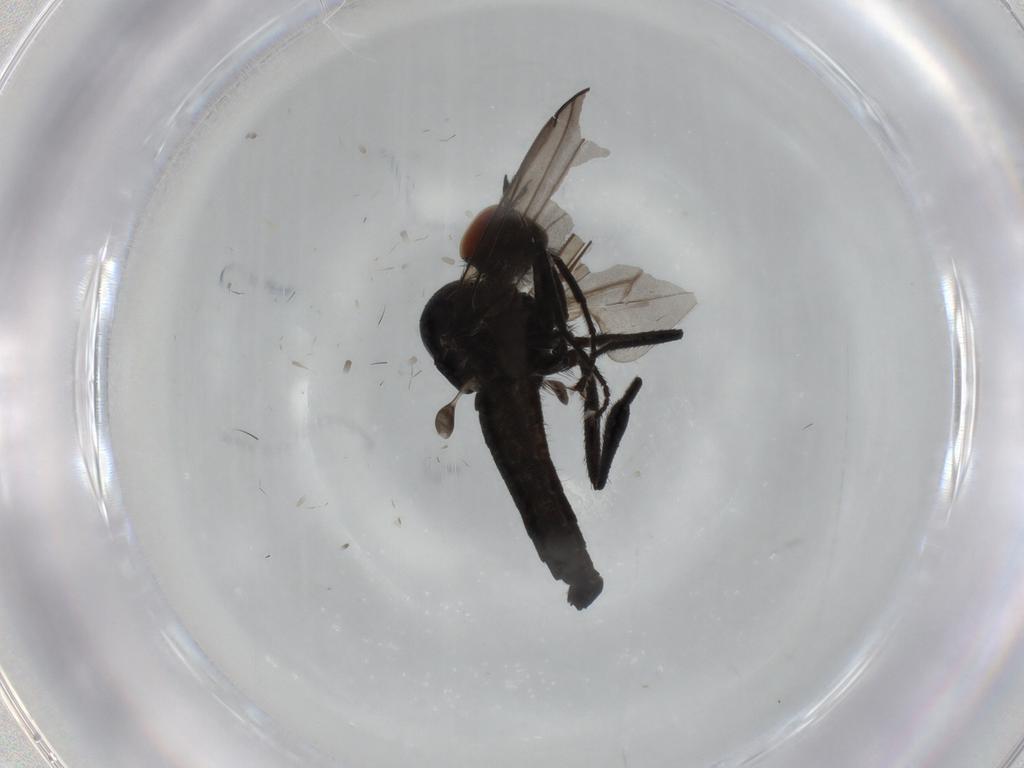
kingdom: Animalia
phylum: Arthropoda
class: Insecta
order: Diptera
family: Hybotidae
